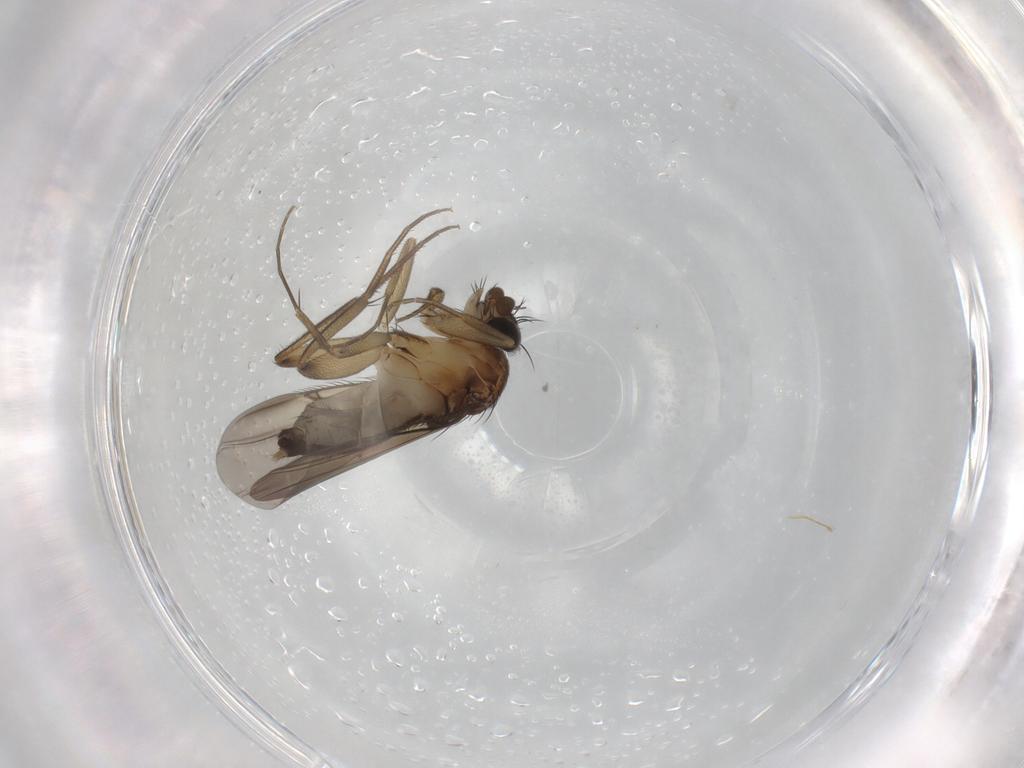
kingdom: Animalia
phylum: Arthropoda
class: Insecta
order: Diptera
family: Phoridae
